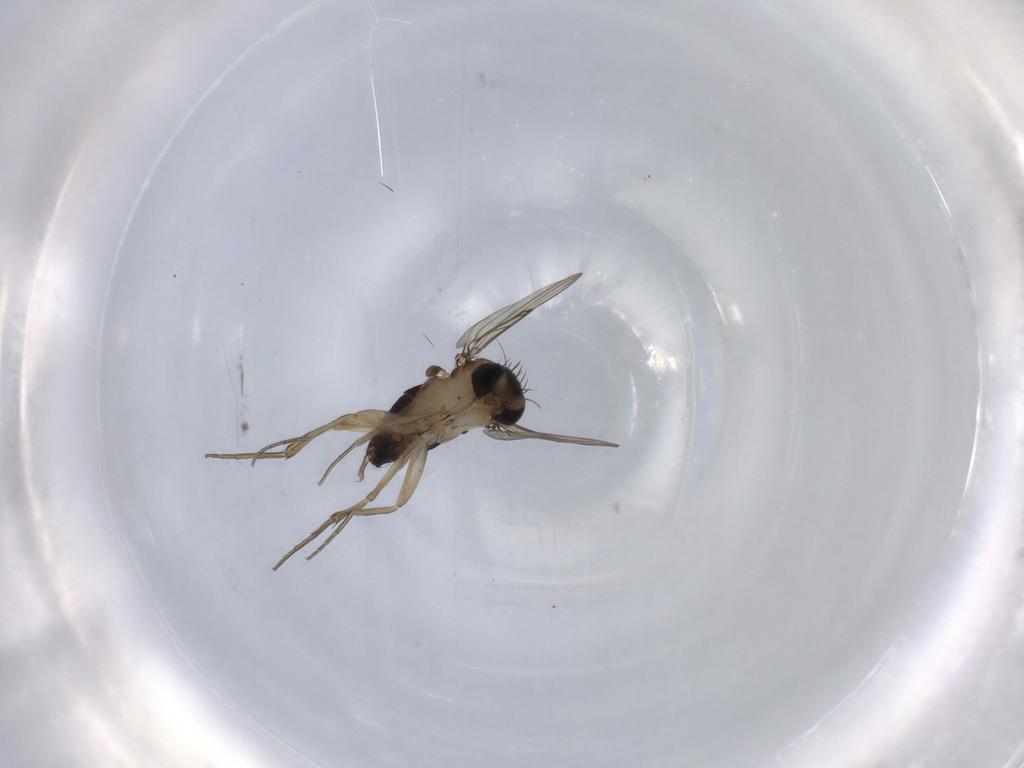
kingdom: Animalia
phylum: Arthropoda
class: Insecta
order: Diptera
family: Phoridae
